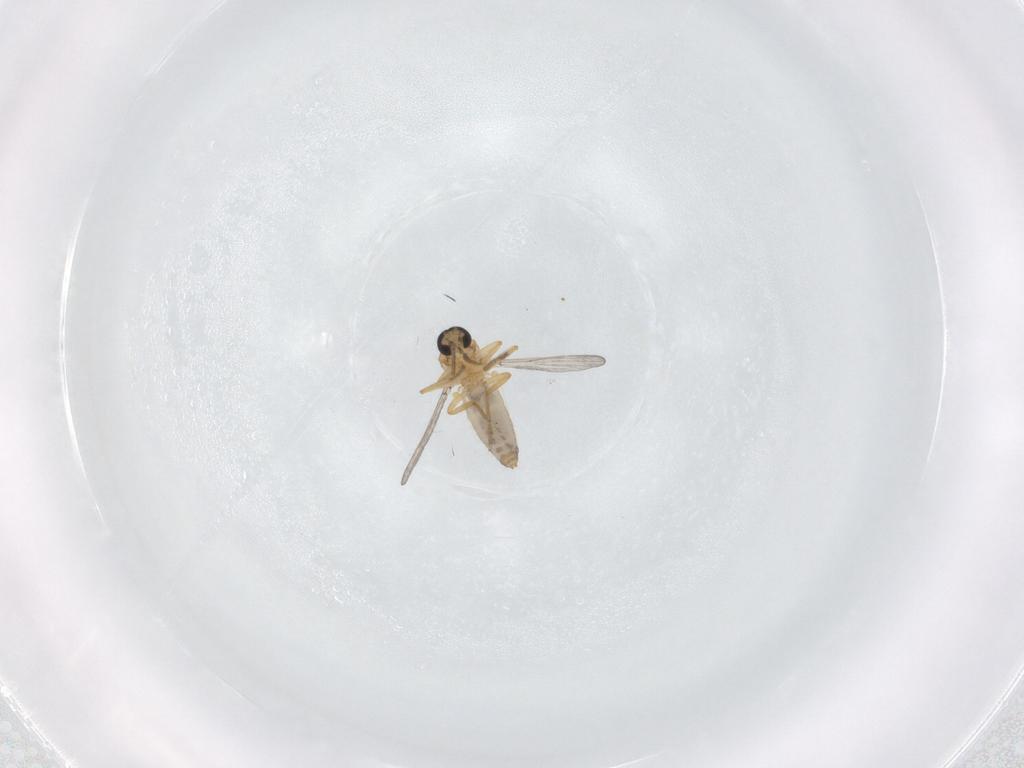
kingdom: Animalia
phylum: Arthropoda
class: Insecta
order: Diptera
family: Ceratopogonidae
